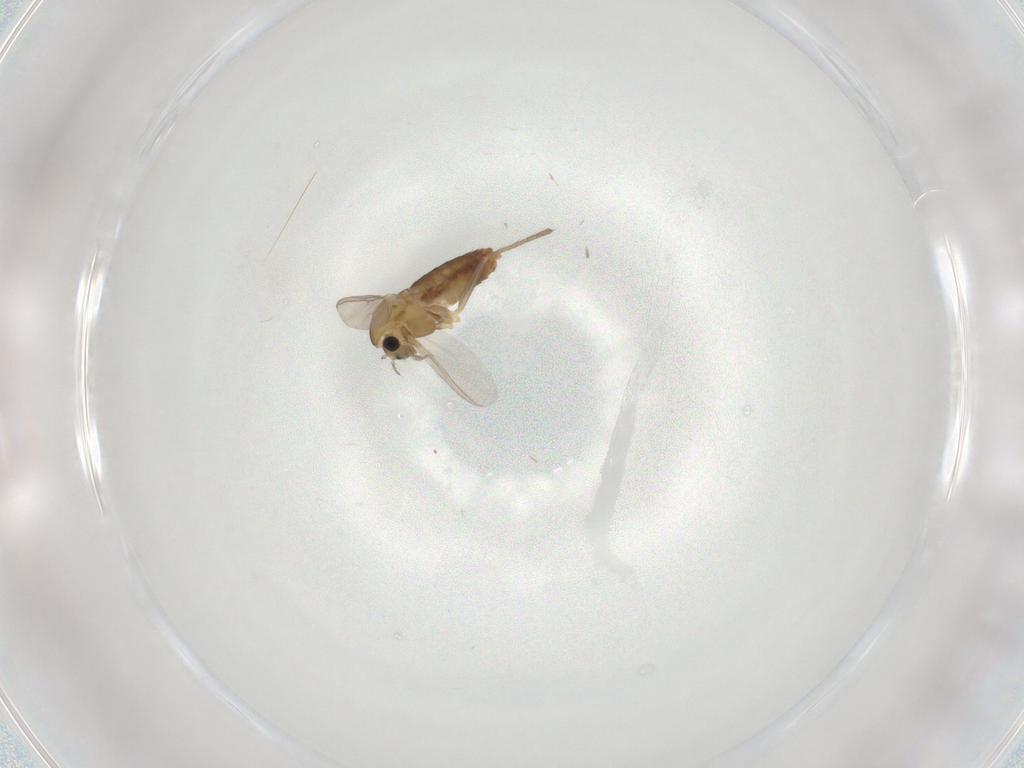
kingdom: Animalia
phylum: Arthropoda
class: Insecta
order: Diptera
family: Chironomidae
